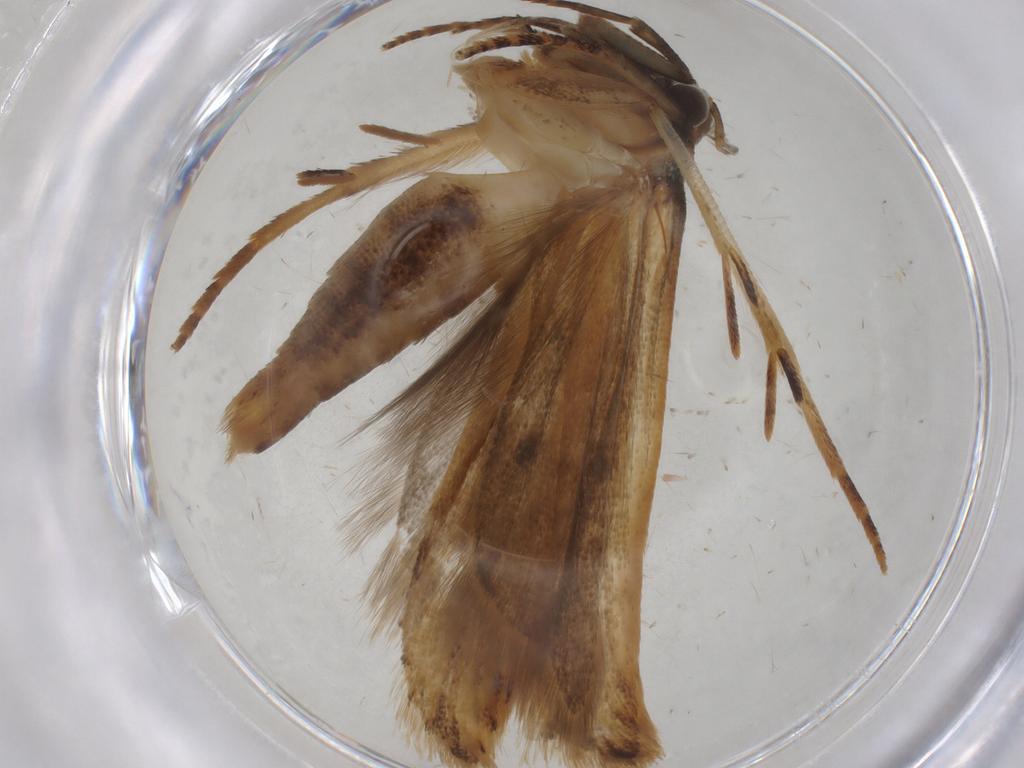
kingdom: Animalia
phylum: Arthropoda
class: Insecta
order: Lepidoptera
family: Gelechiidae
